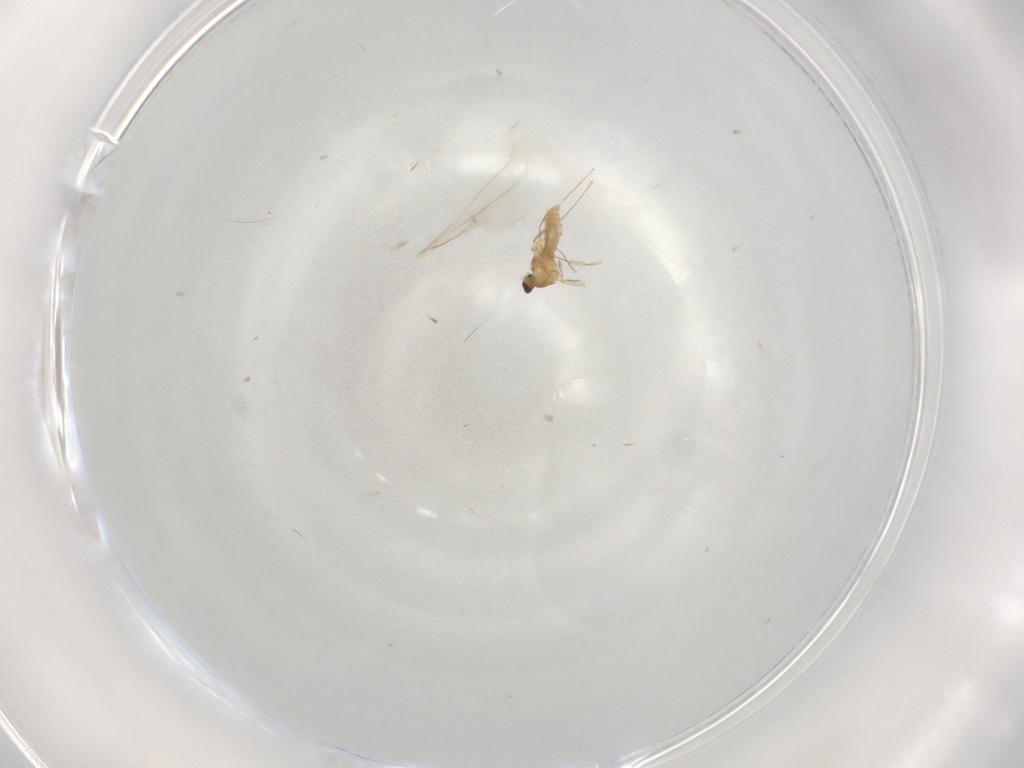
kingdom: Animalia
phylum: Arthropoda
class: Insecta
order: Diptera
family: Cecidomyiidae
